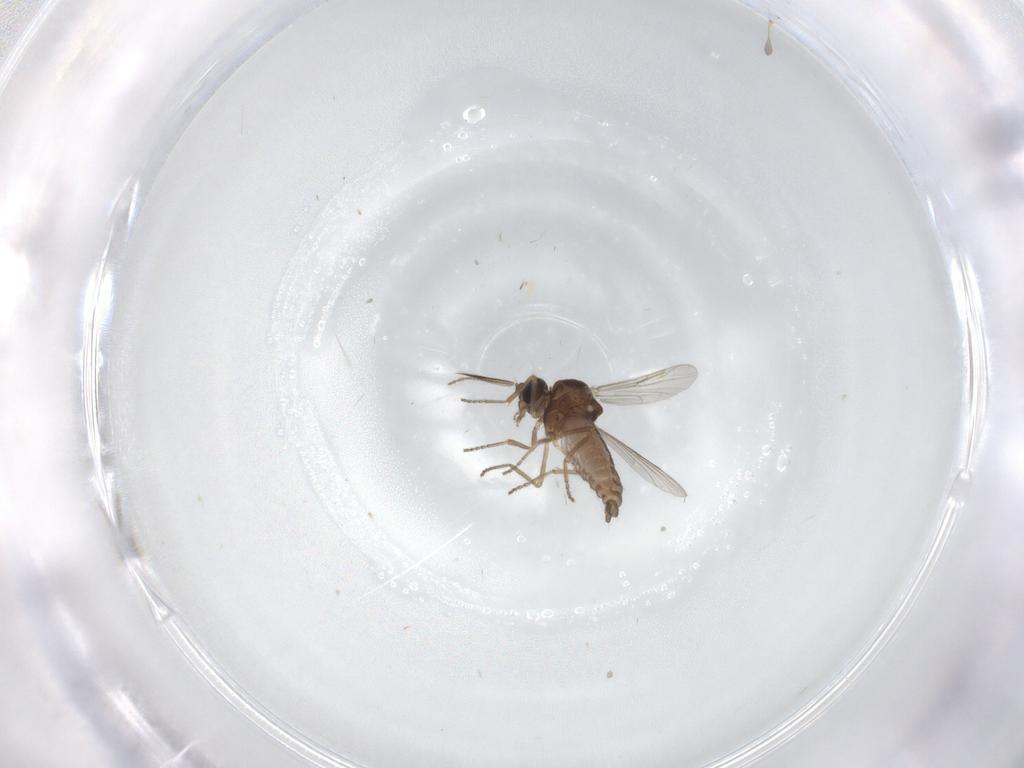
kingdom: Animalia
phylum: Arthropoda
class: Insecta
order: Diptera
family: Ceratopogonidae
